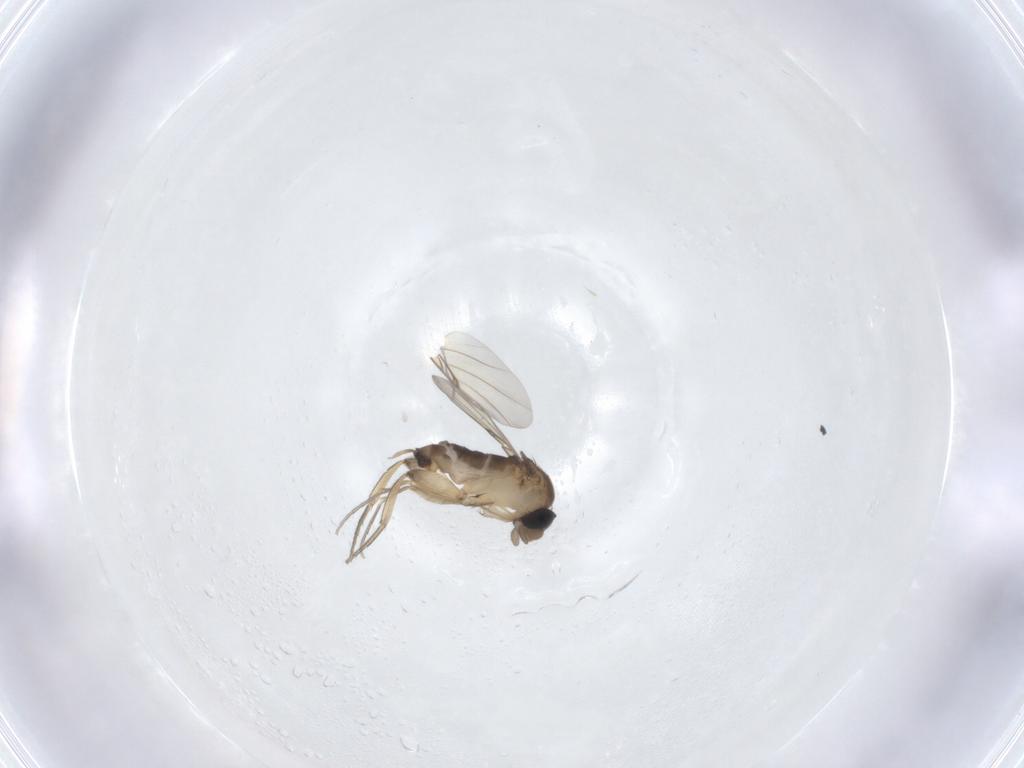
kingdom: Animalia
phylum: Arthropoda
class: Insecta
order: Diptera
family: Phoridae
